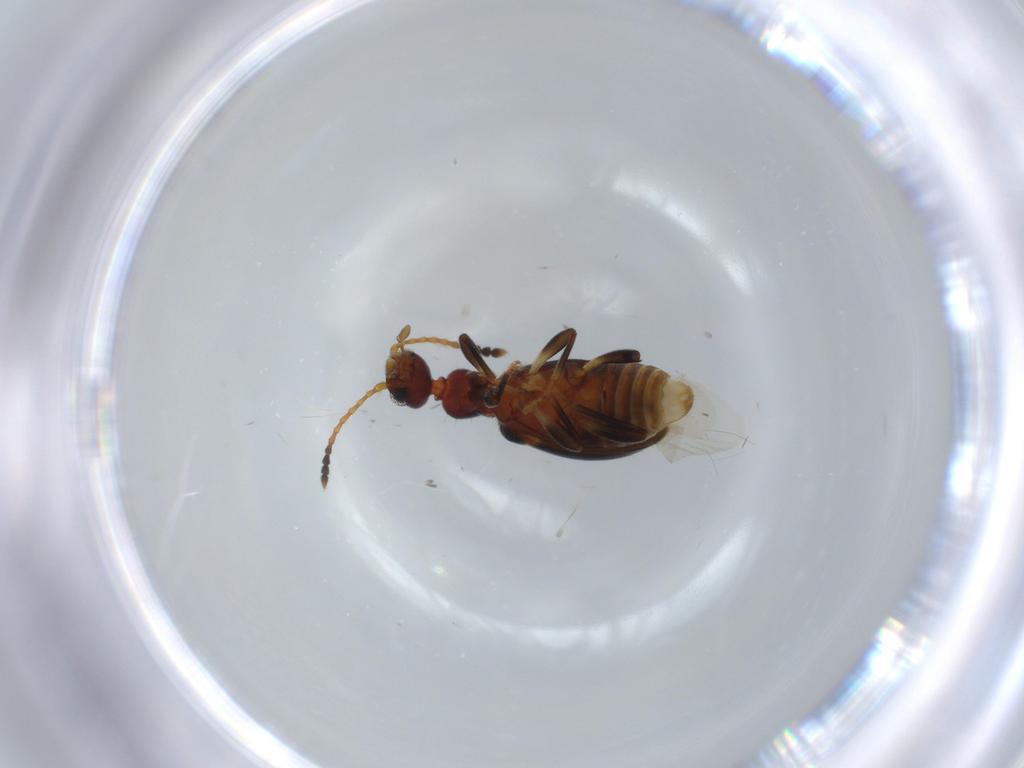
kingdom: Animalia
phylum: Arthropoda
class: Insecta
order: Coleoptera
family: Anthicidae
